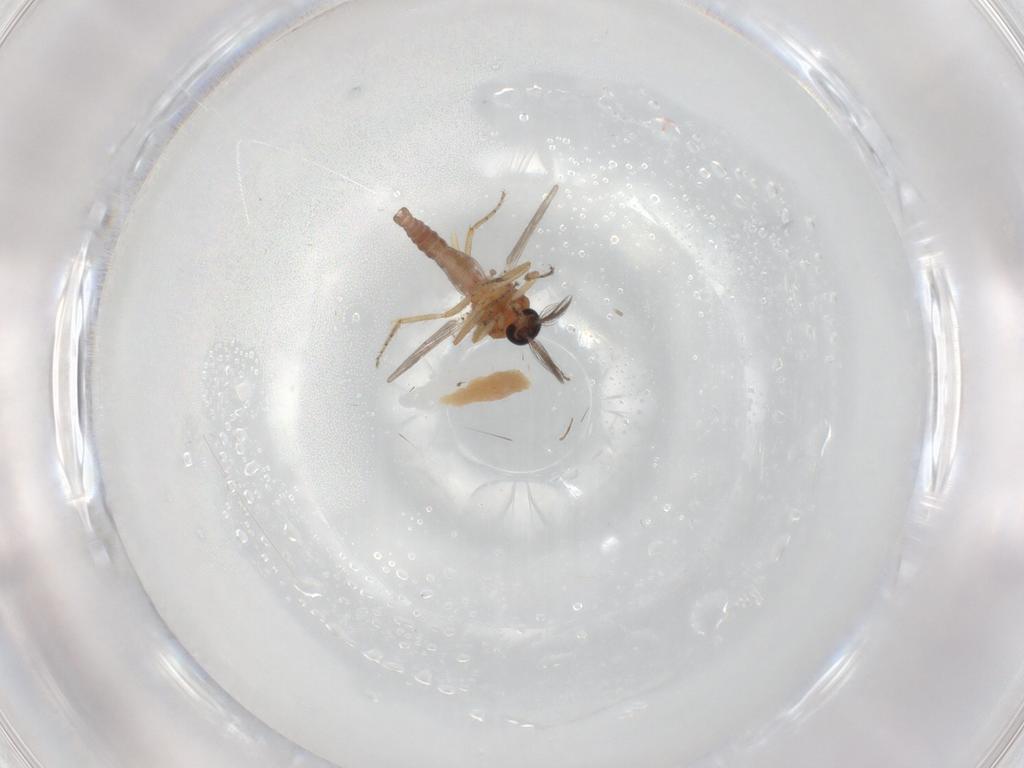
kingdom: Animalia
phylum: Arthropoda
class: Insecta
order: Diptera
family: Ceratopogonidae
